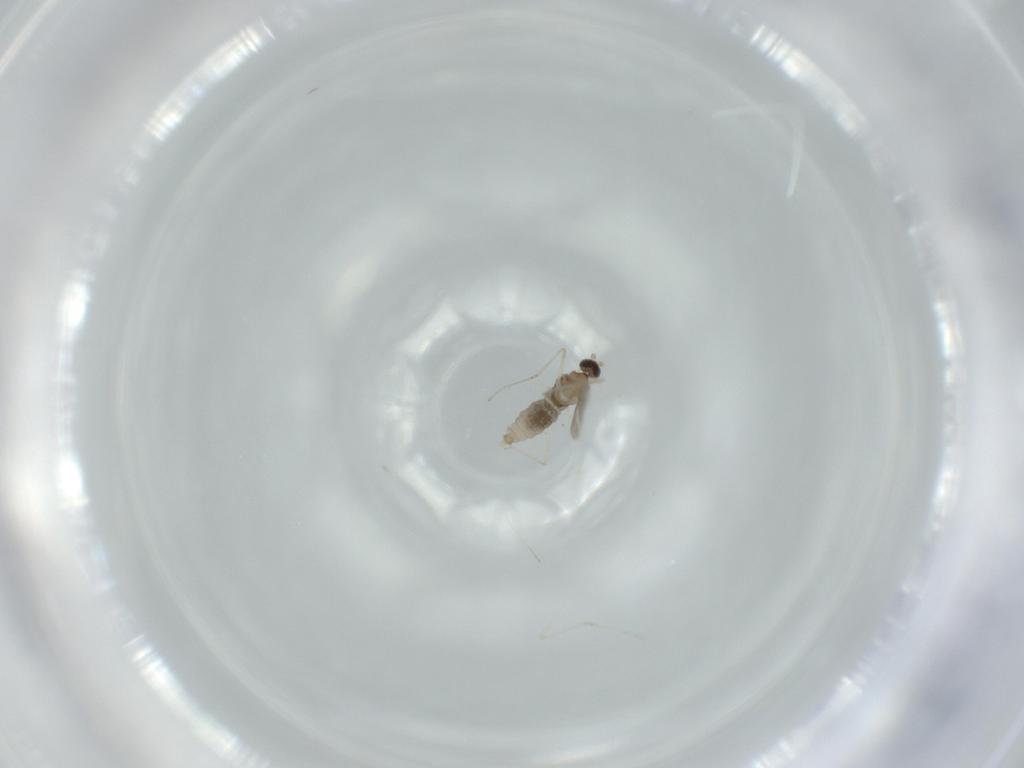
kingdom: Animalia
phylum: Arthropoda
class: Insecta
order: Diptera
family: Cecidomyiidae
